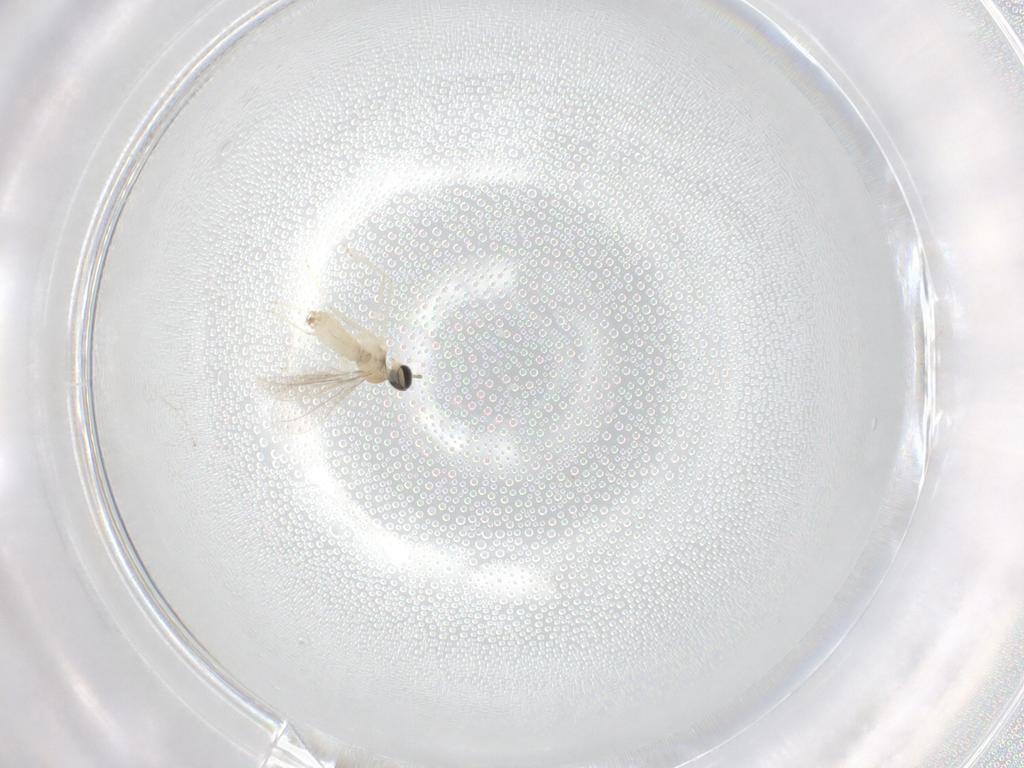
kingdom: Animalia
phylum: Arthropoda
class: Insecta
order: Diptera
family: Cecidomyiidae
